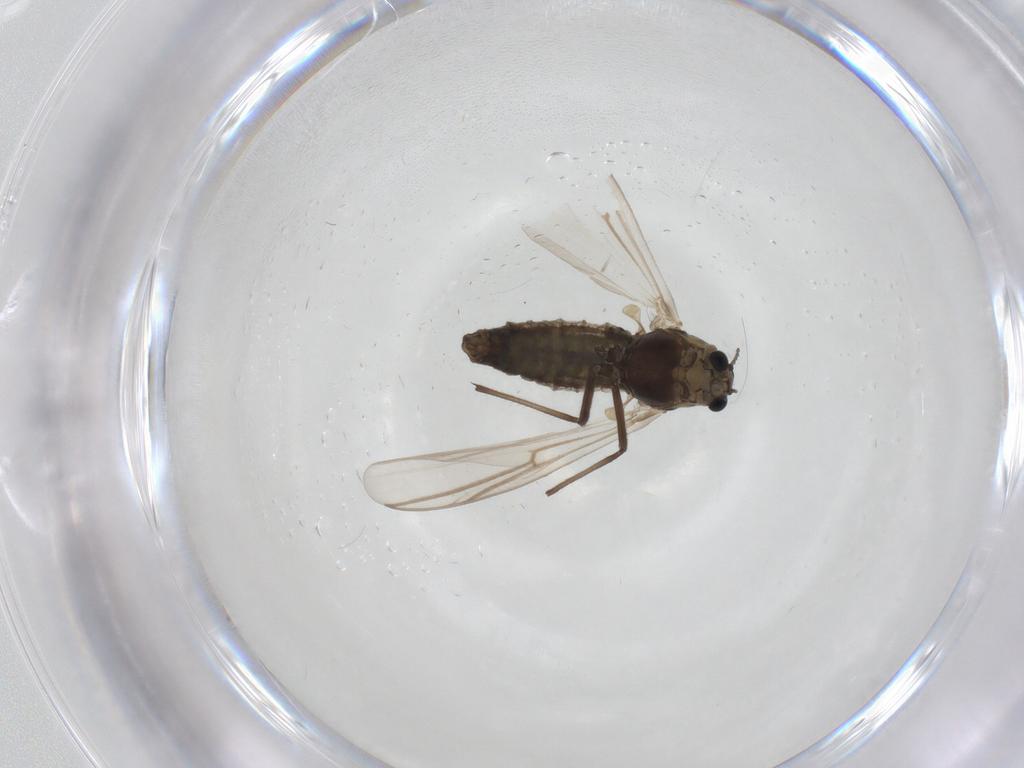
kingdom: Animalia
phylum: Arthropoda
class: Insecta
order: Diptera
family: Chironomidae
